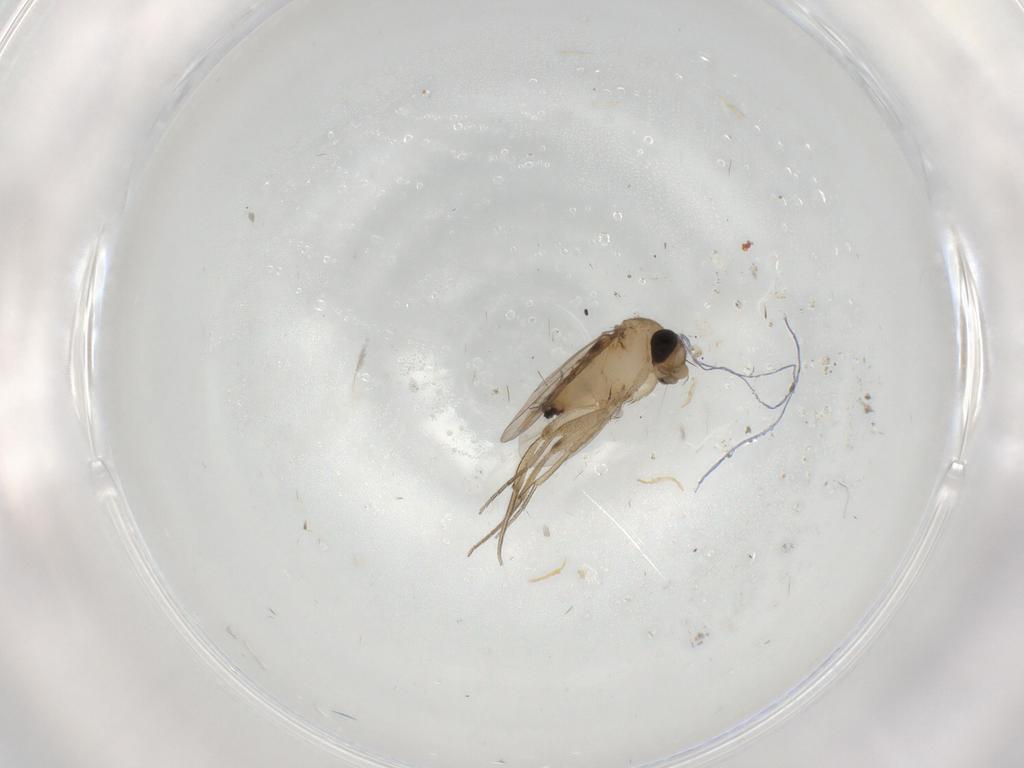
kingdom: Animalia
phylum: Arthropoda
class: Insecta
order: Diptera
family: Phoridae
